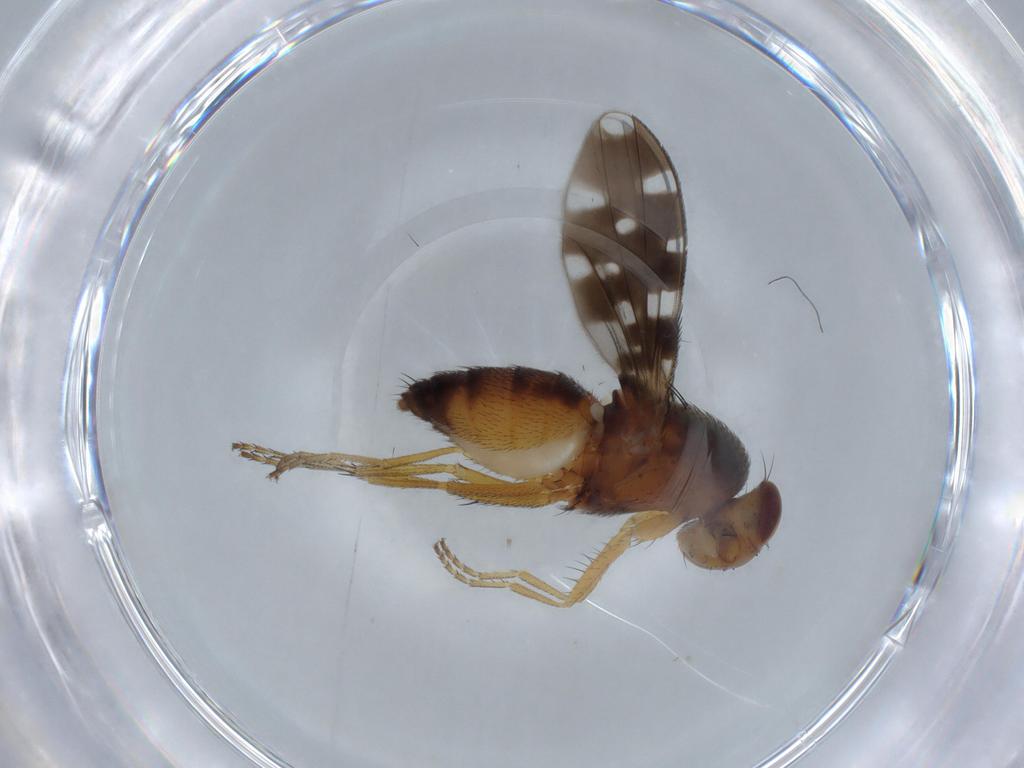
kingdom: Animalia
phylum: Arthropoda
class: Insecta
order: Diptera
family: Ephydridae
